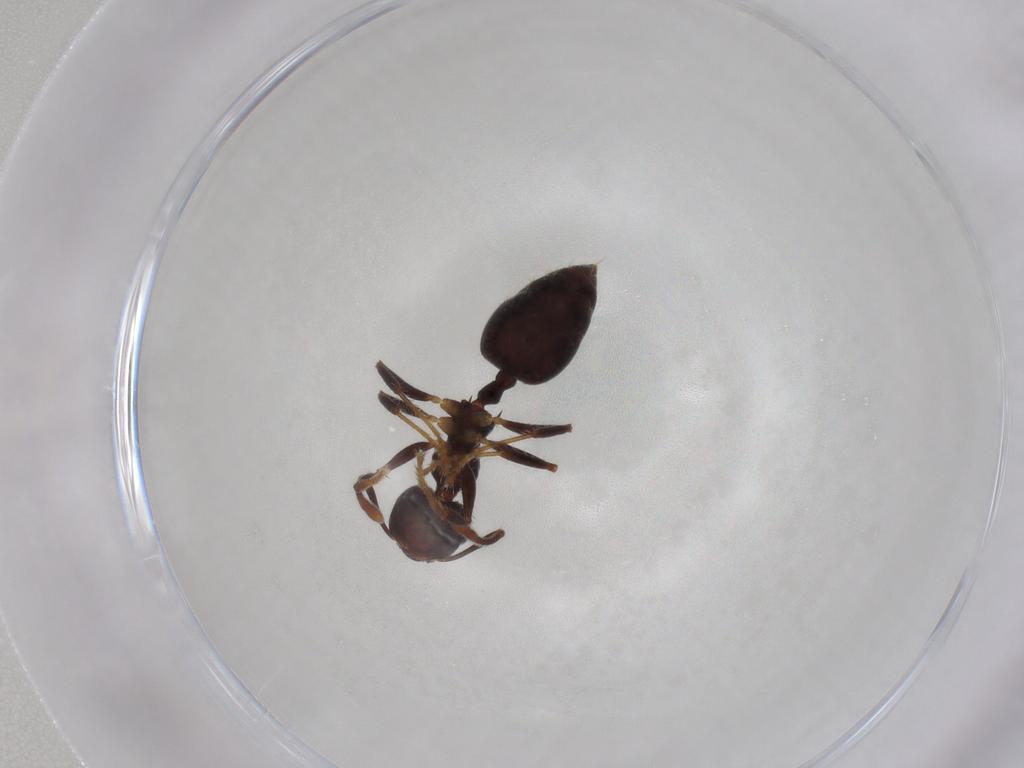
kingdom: Animalia
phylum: Arthropoda
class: Insecta
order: Hymenoptera
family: Formicidae
